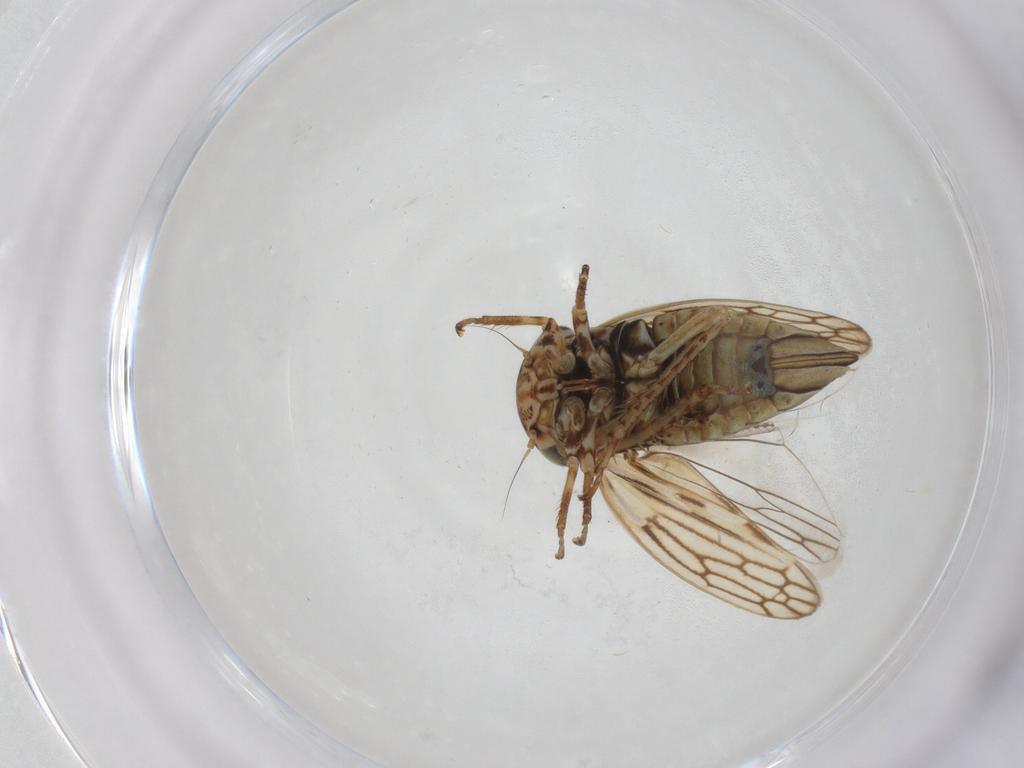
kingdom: Animalia
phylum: Arthropoda
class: Insecta
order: Hemiptera
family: Cicadellidae
